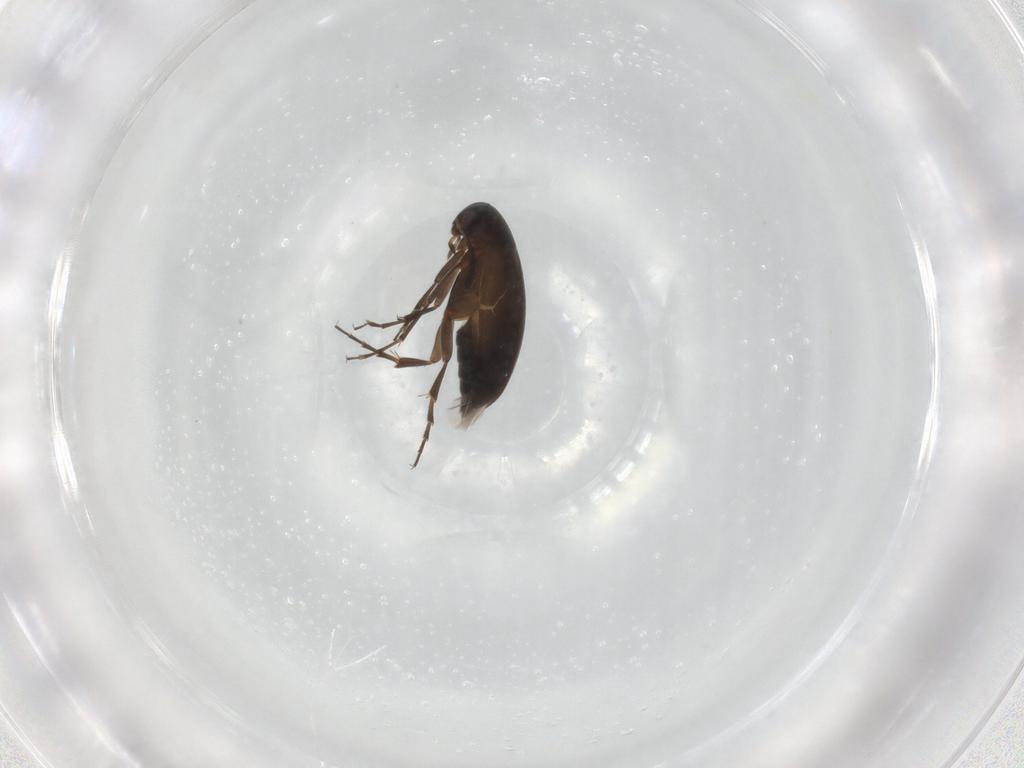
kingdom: Animalia
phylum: Arthropoda
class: Insecta
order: Coleoptera
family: Scraptiidae
